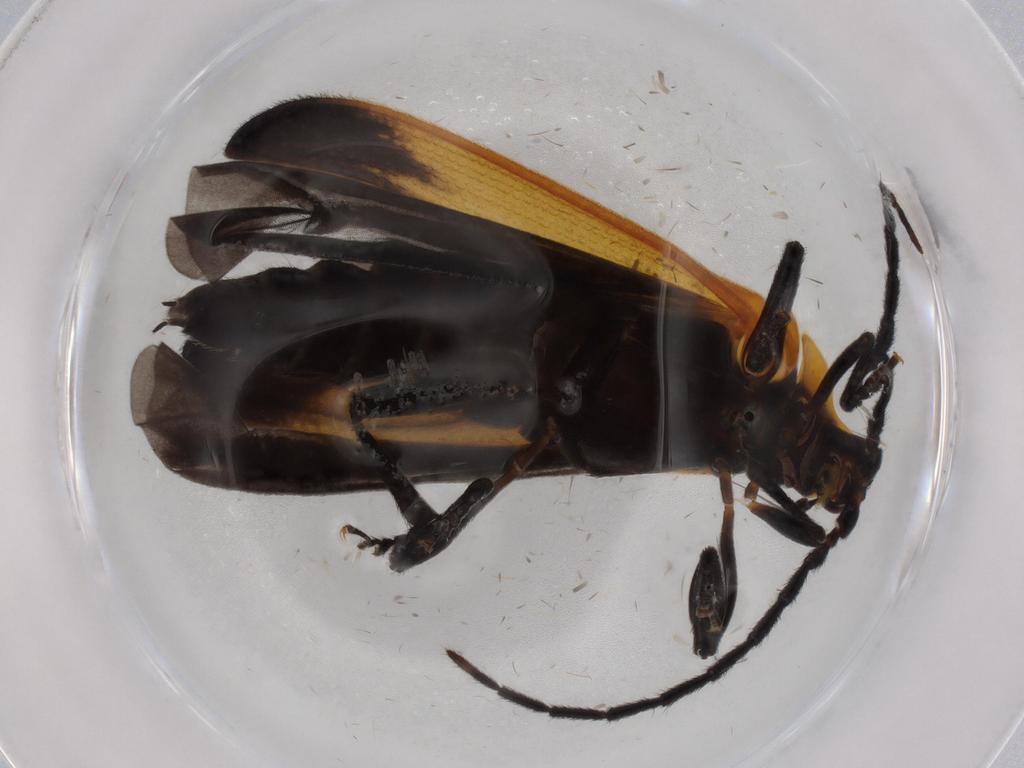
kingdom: Animalia
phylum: Arthropoda
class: Insecta
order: Coleoptera
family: Lycidae
